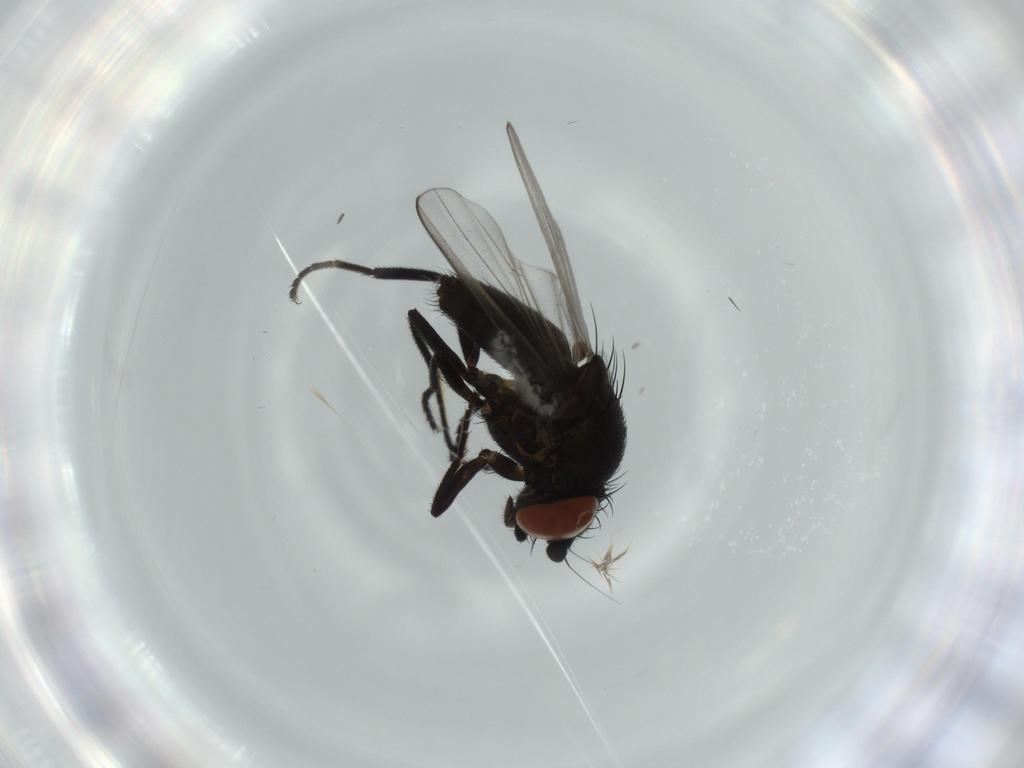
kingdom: Animalia
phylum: Arthropoda
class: Insecta
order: Diptera
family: Milichiidae
